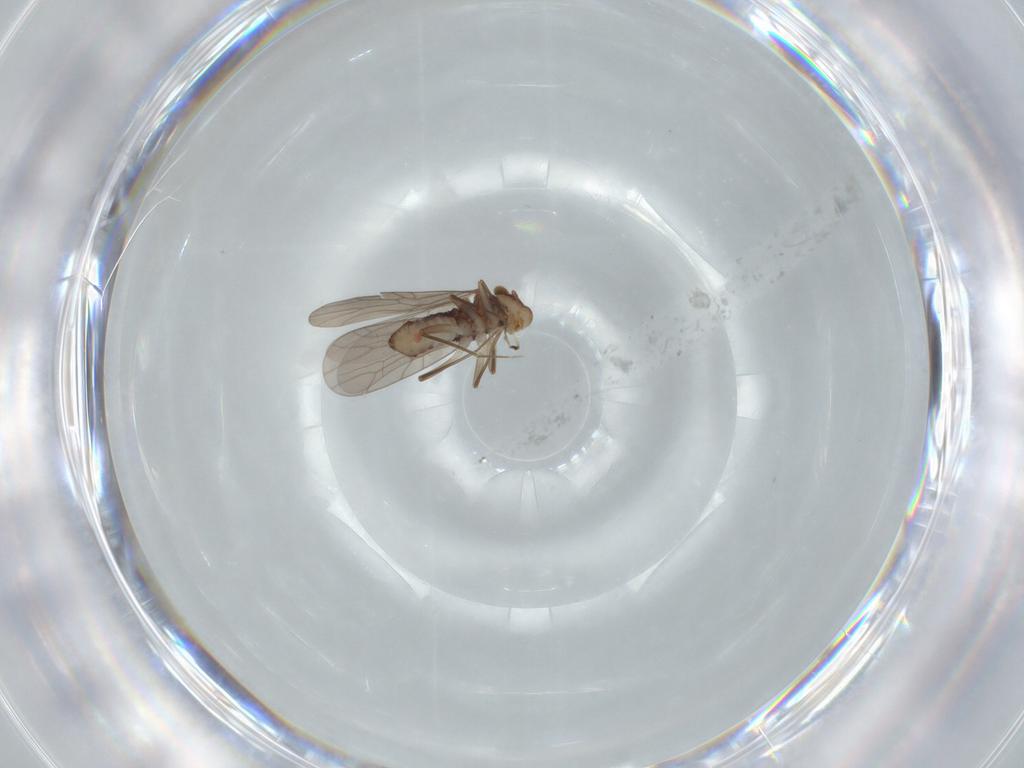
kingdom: Animalia
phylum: Arthropoda
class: Insecta
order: Psocodea
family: Lepidopsocidae
